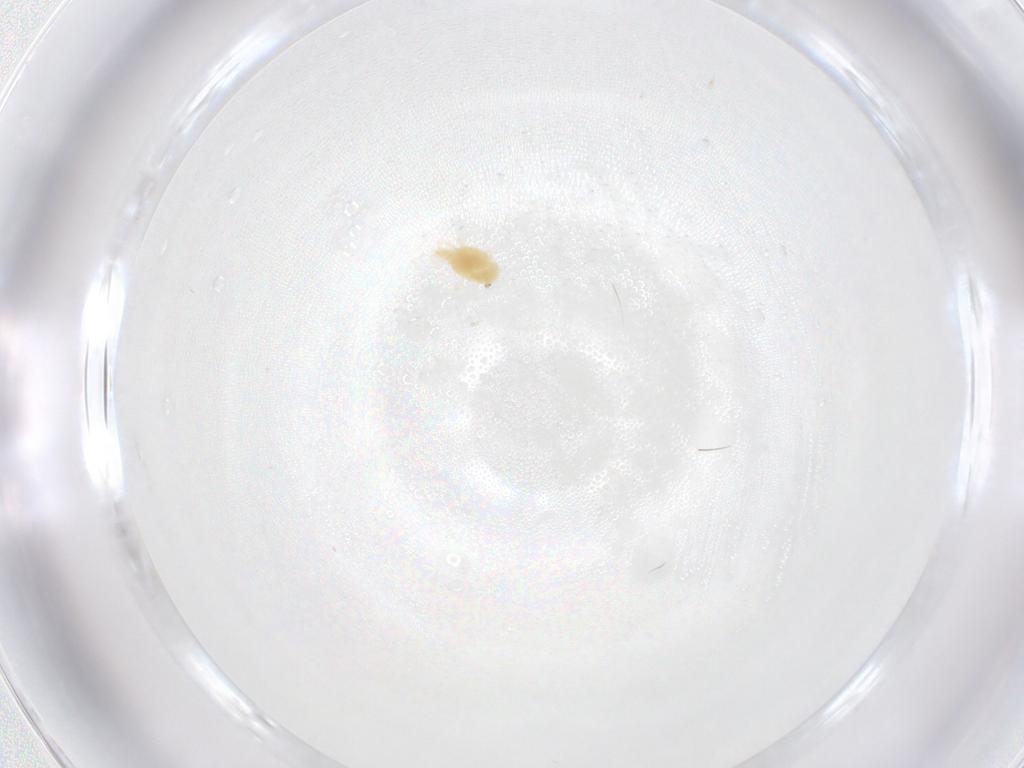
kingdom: Animalia
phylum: Arthropoda
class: Arachnida
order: Trombidiformes
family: Tetranychidae
